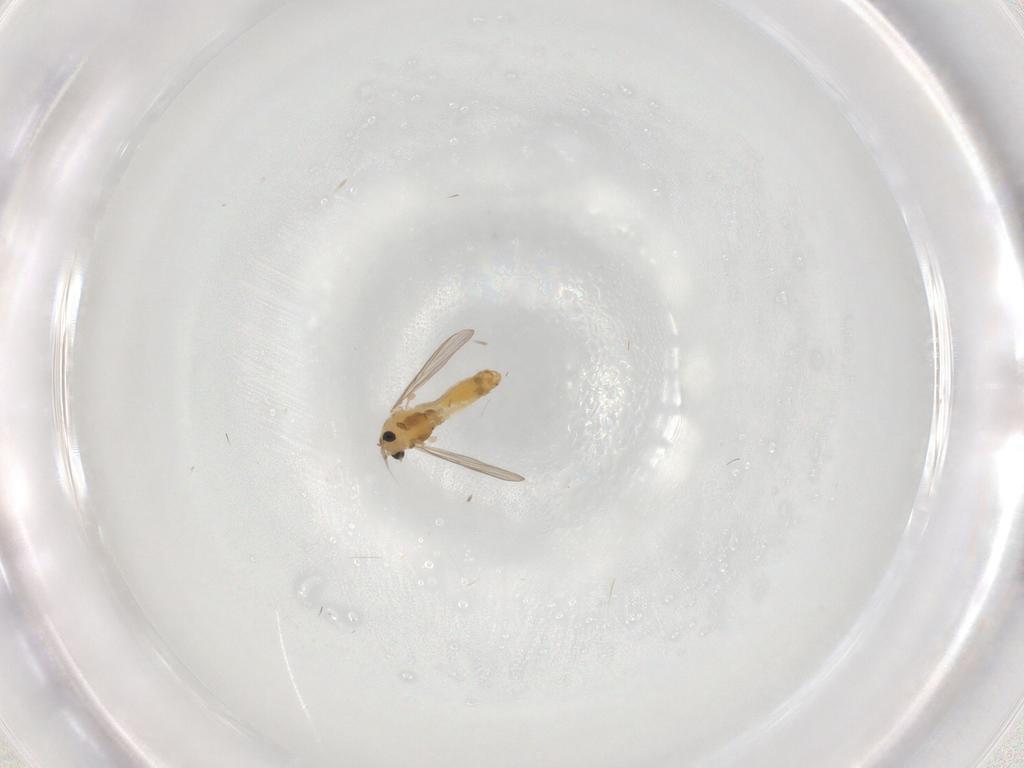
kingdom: Animalia
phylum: Arthropoda
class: Insecta
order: Diptera
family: Chironomidae
